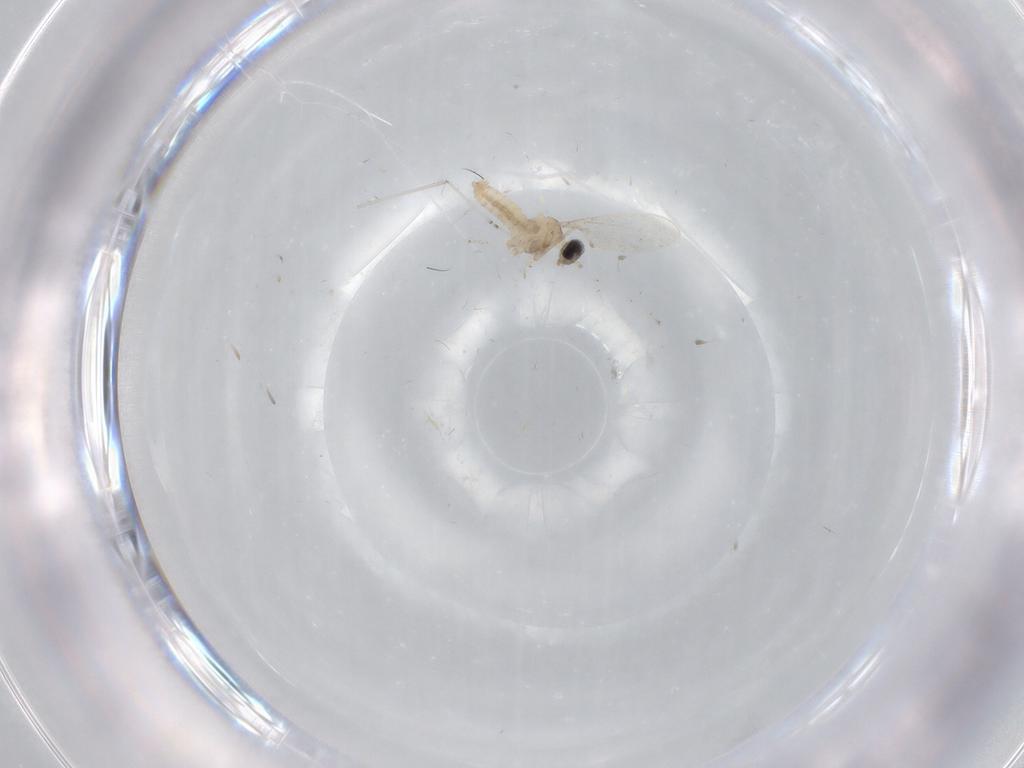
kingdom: Animalia
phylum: Arthropoda
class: Insecta
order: Diptera
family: Cecidomyiidae
